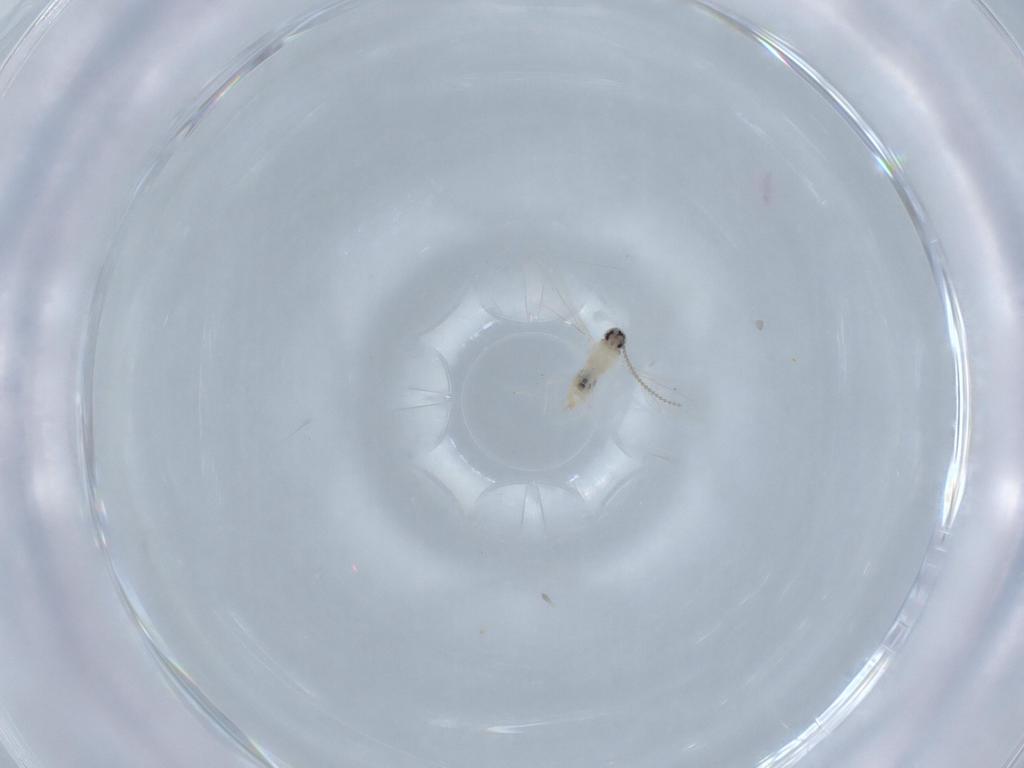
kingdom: Animalia
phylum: Arthropoda
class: Insecta
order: Diptera
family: Cecidomyiidae
